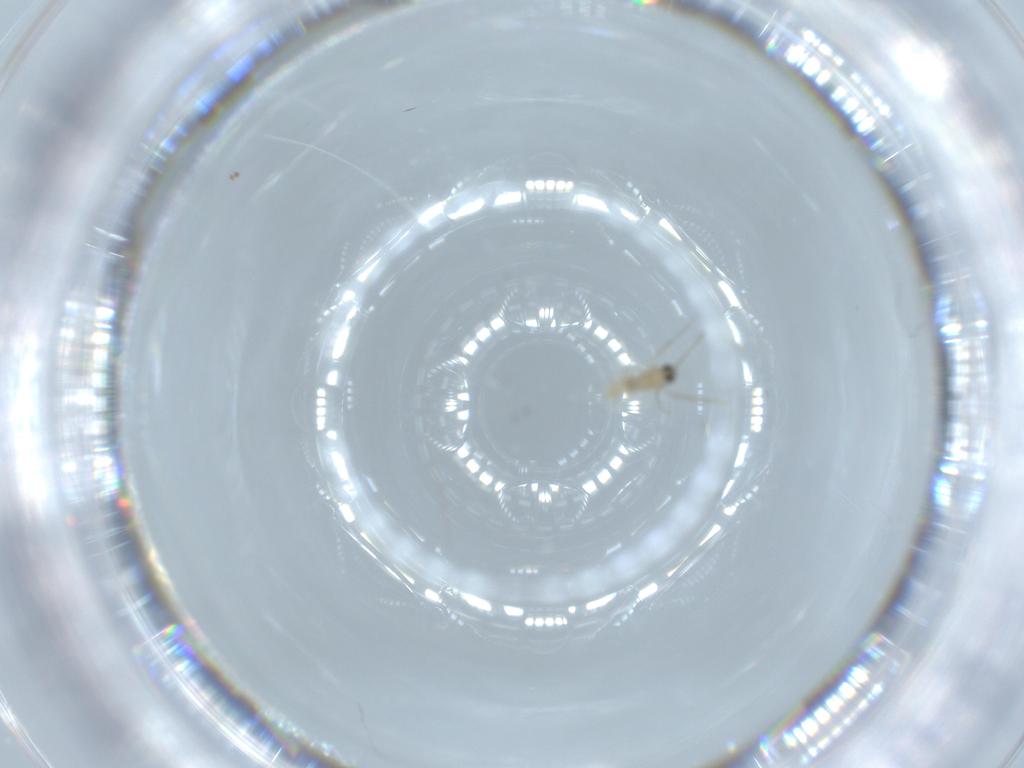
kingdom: Animalia
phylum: Arthropoda
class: Insecta
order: Diptera
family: Cecidomyiidae
